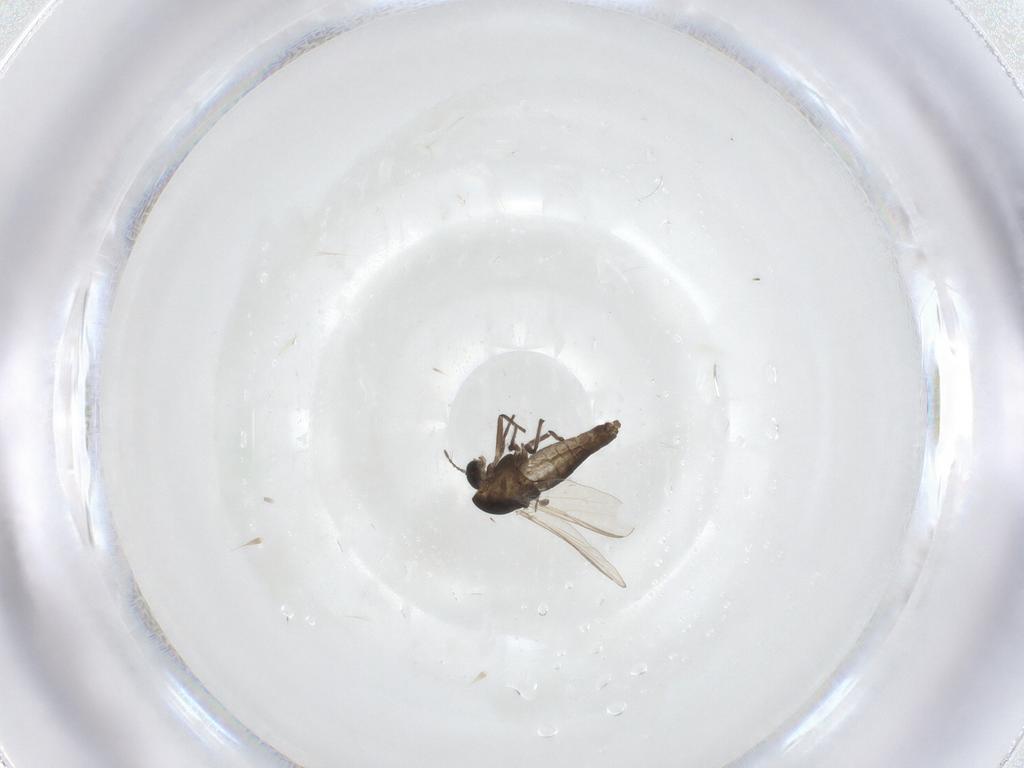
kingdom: Animalia
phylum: Arthropoda
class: Insecta
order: Diptera
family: Chironomidae
